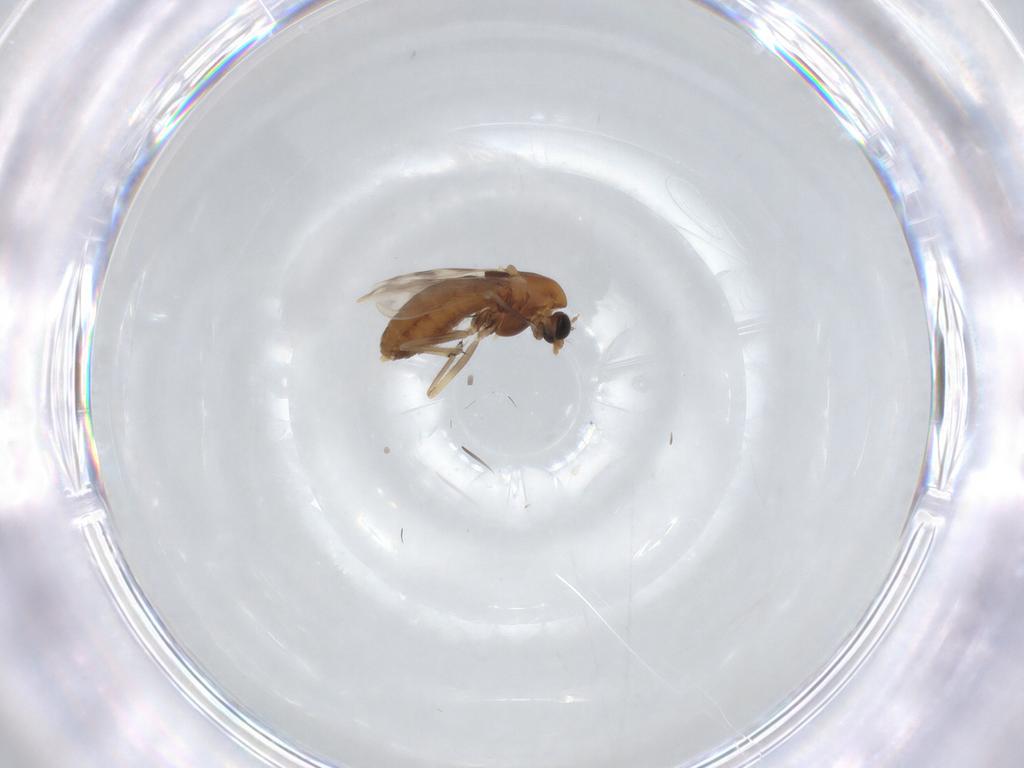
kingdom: Animalia
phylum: Arthropoda
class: Insecta
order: Diptera
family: Chironomidae
